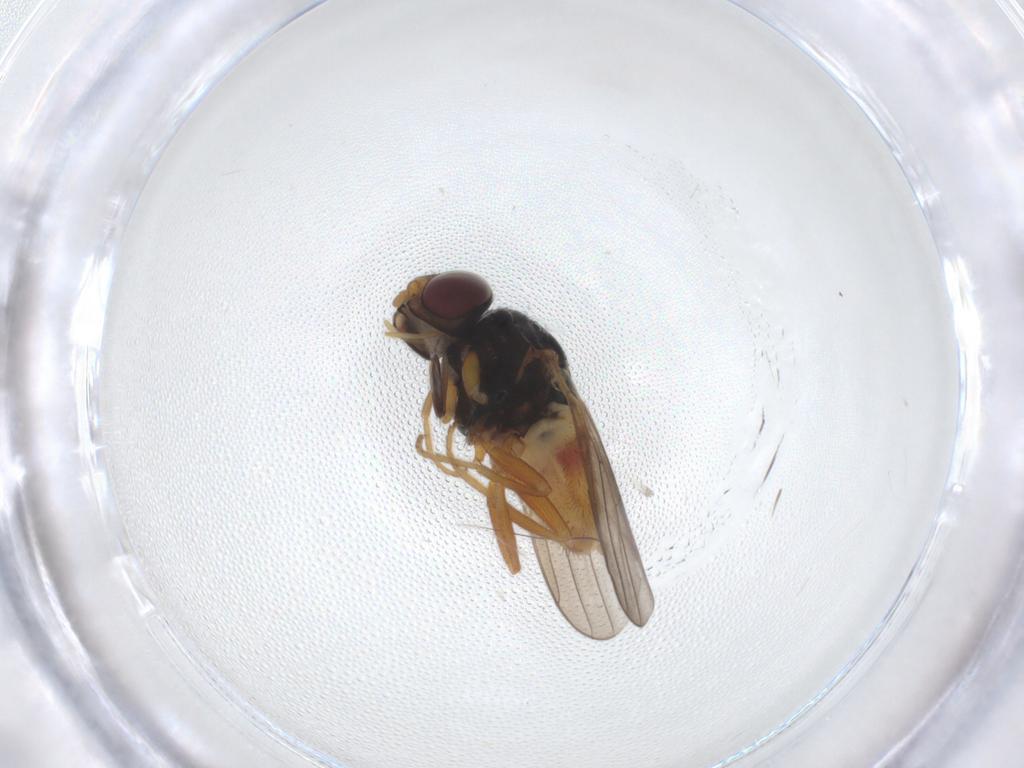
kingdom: Animalia
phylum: Arthropoda
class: Insecta
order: Diptera
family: Chloropidae
